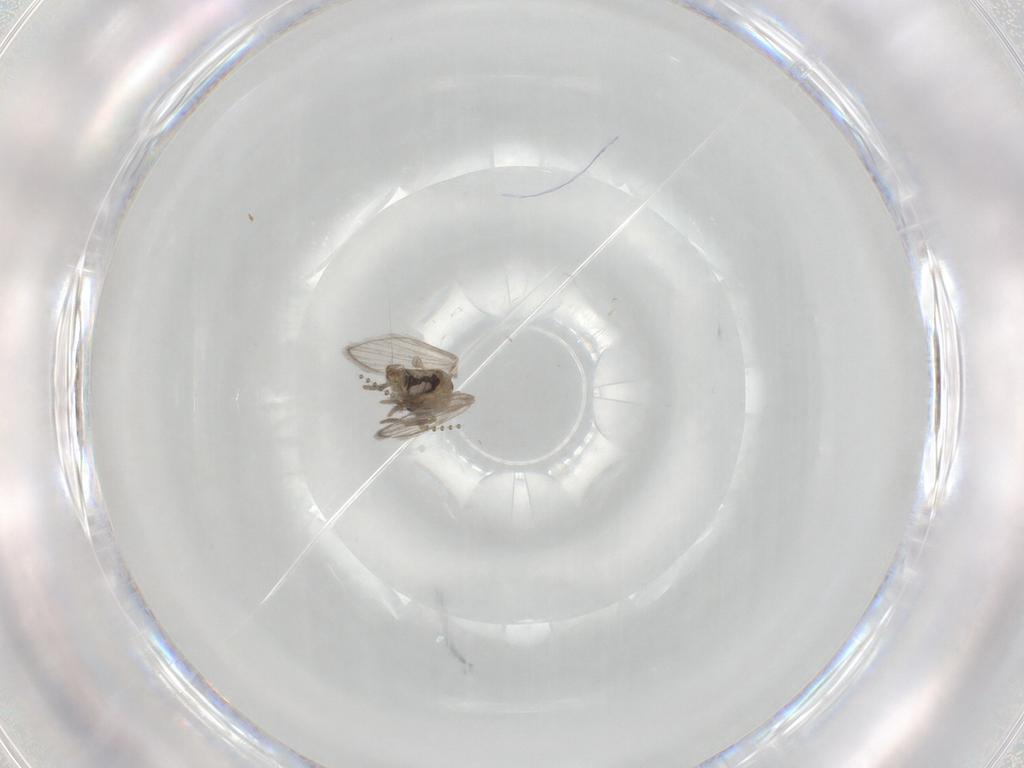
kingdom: Animalia
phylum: Arthropoda
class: Insecta
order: Diptera
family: Psychodidae
